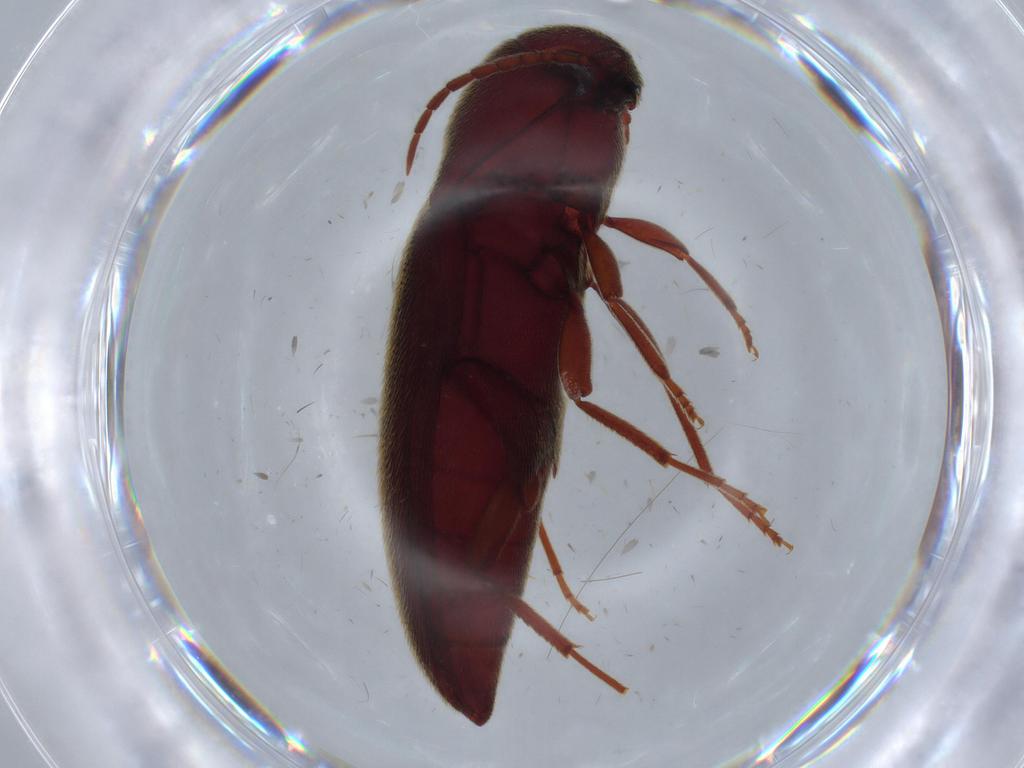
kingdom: Animalia
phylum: Arthropoda
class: Insecta
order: Coleoptera
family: Eucnemidae
